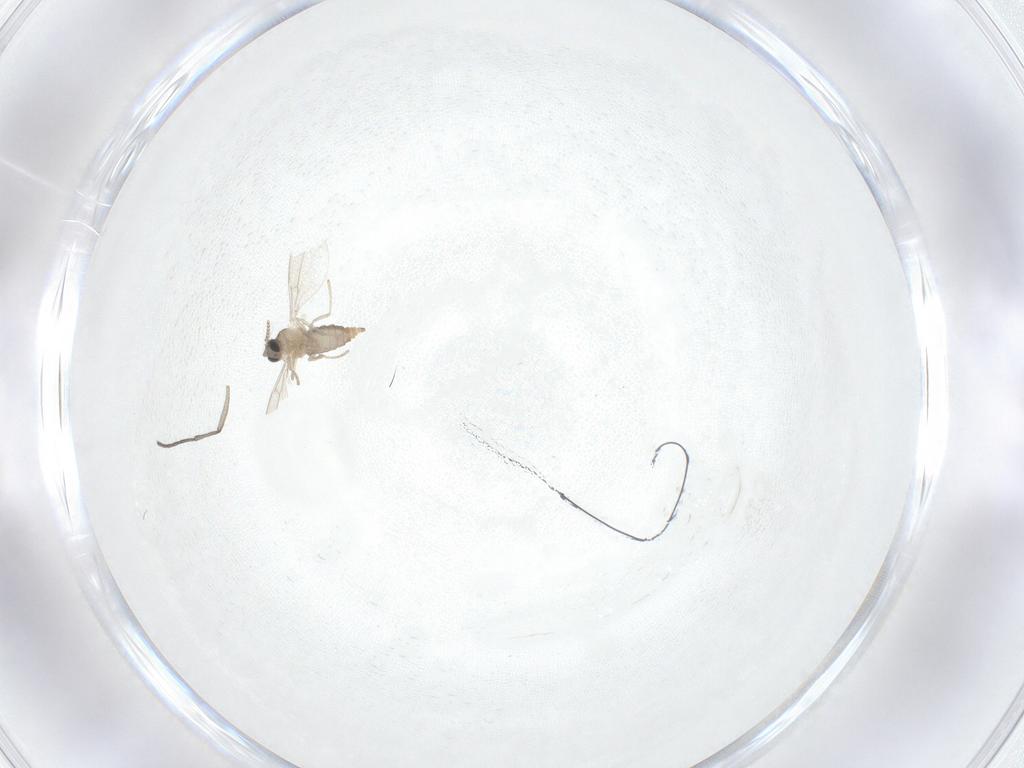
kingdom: Animalia
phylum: Arthropoda
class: Insecta
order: Diptera
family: Cecidomyiidae
